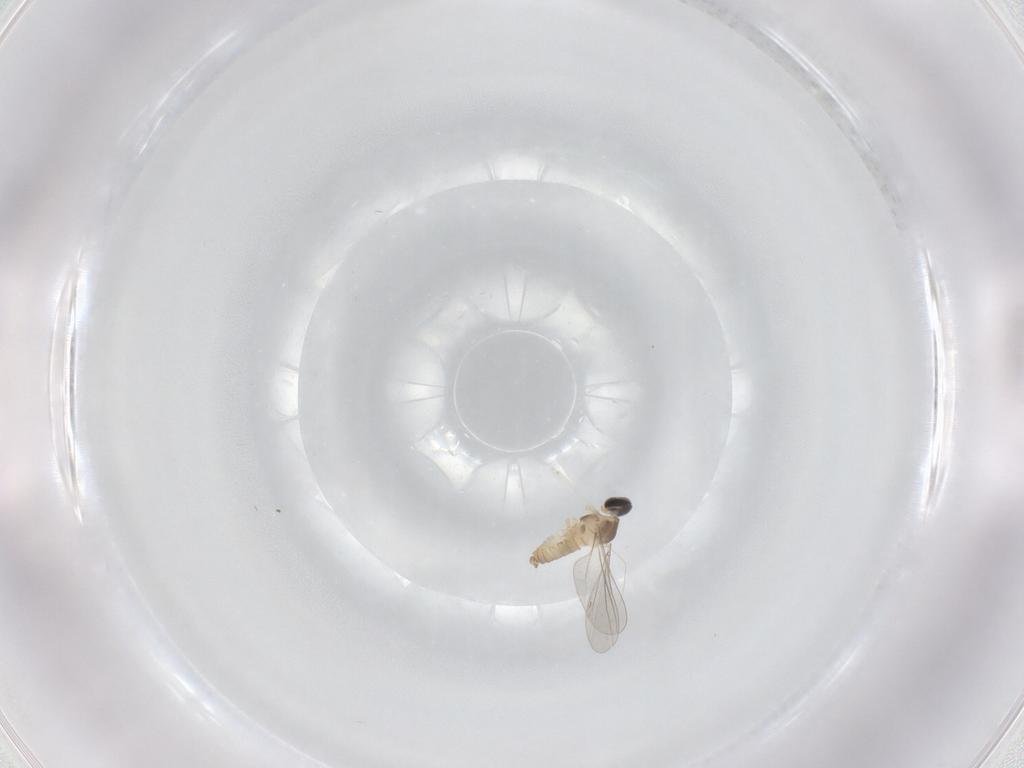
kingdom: Animalia
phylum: Arthropoda
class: Insecta
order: Diptera
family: Cecidomyiidae
